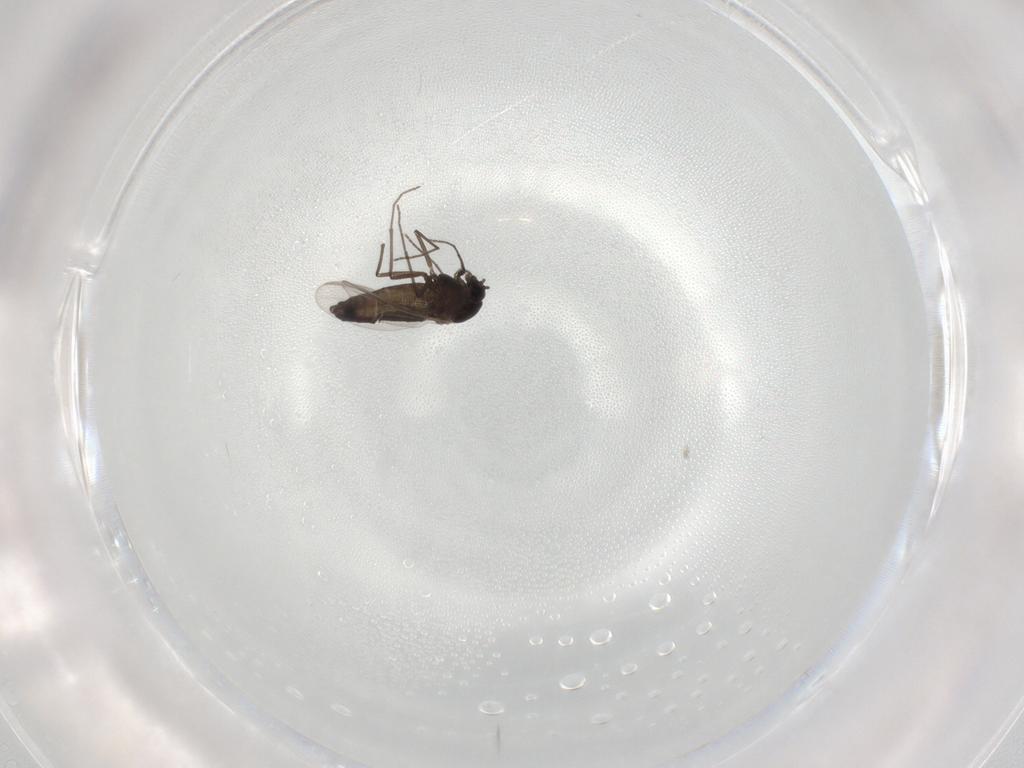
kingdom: Animalia
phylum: Arthropoda
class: Insecta
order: Diptera
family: Chironomidae
